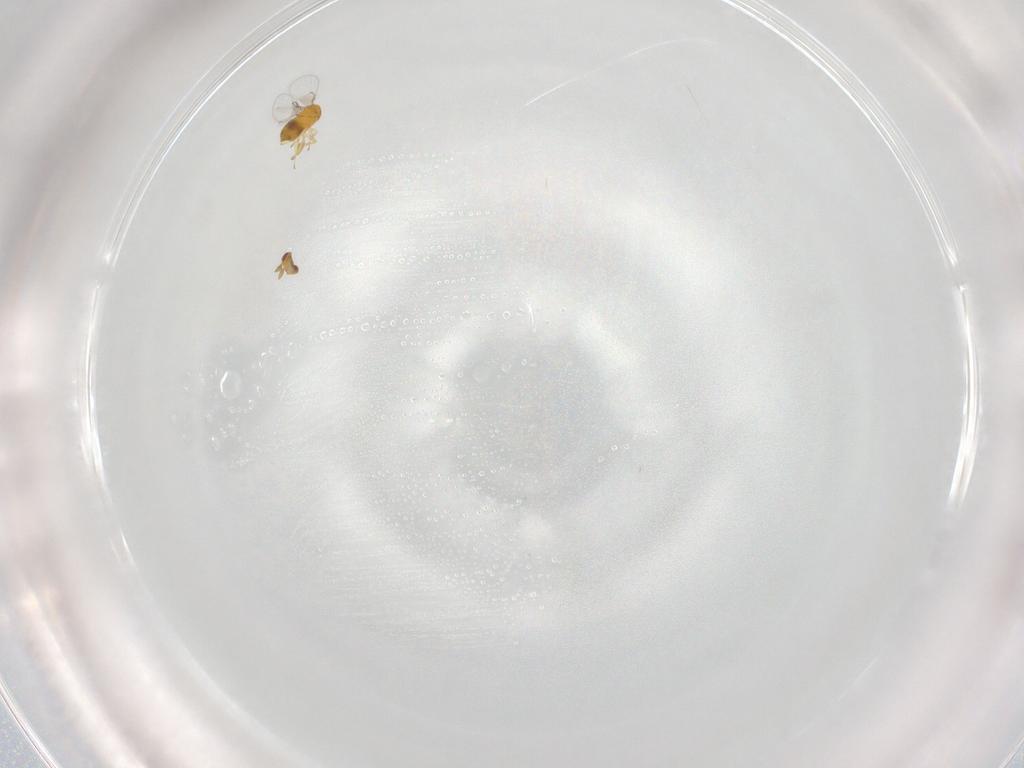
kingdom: Animalia
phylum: Arthropoda
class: Insecta
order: Hymenoptera
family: Trichogrammatidae
